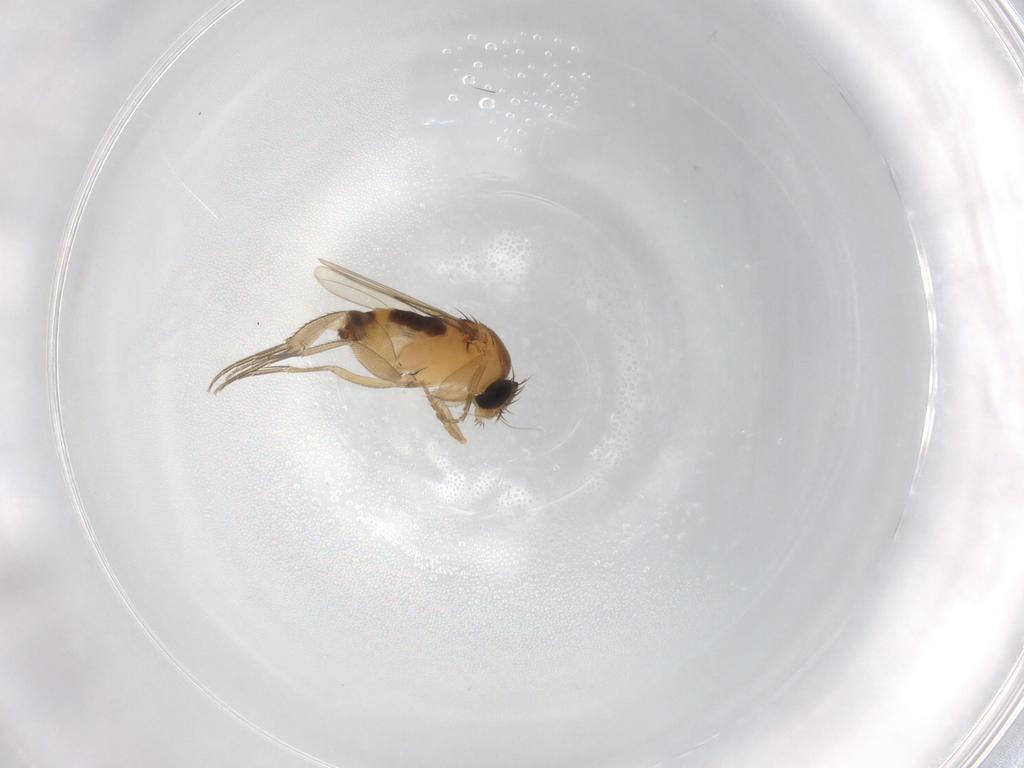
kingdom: Animalia
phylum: Arthropoda
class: Insecta
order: Diptera
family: Phoridae
